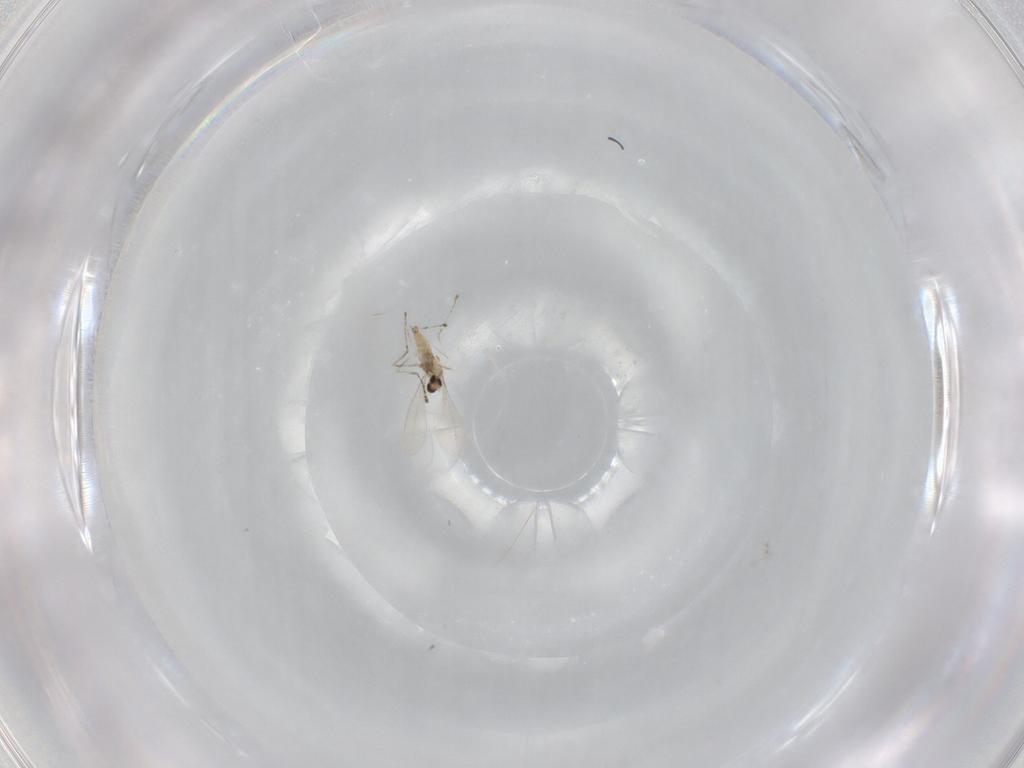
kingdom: Animalia
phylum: Arthropoda
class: Insecta
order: Diptera
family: Cecidomyiidae
